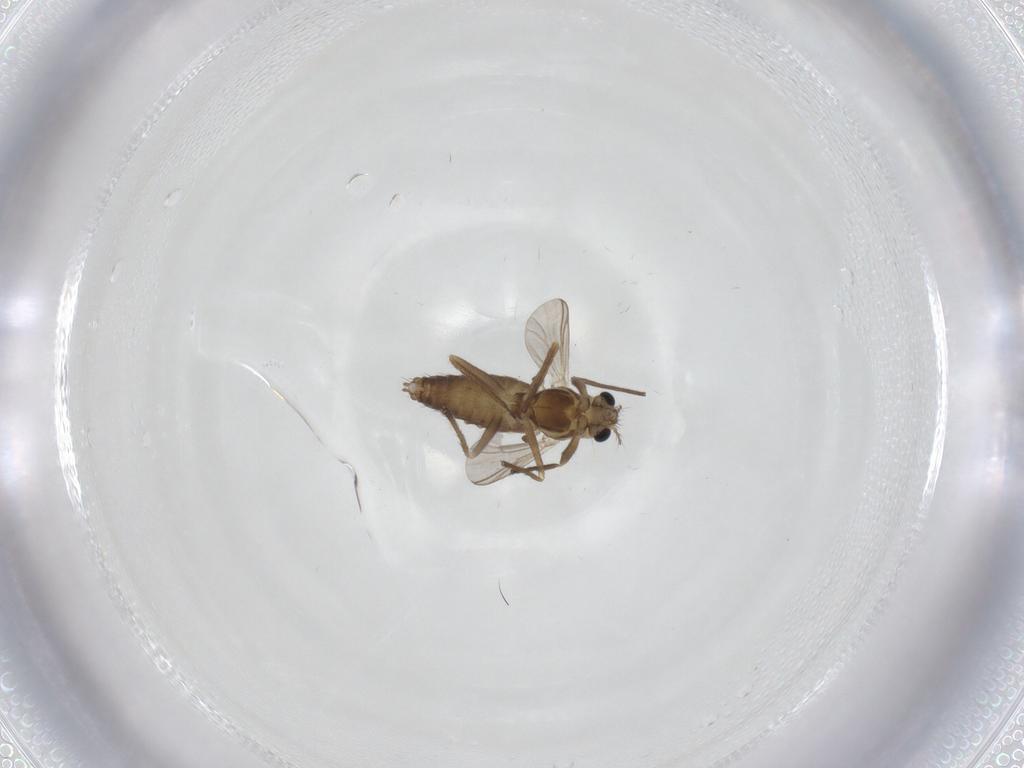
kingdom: Animalia
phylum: Arthropoda
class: Insecta
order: Diptera
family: Chironomidae
